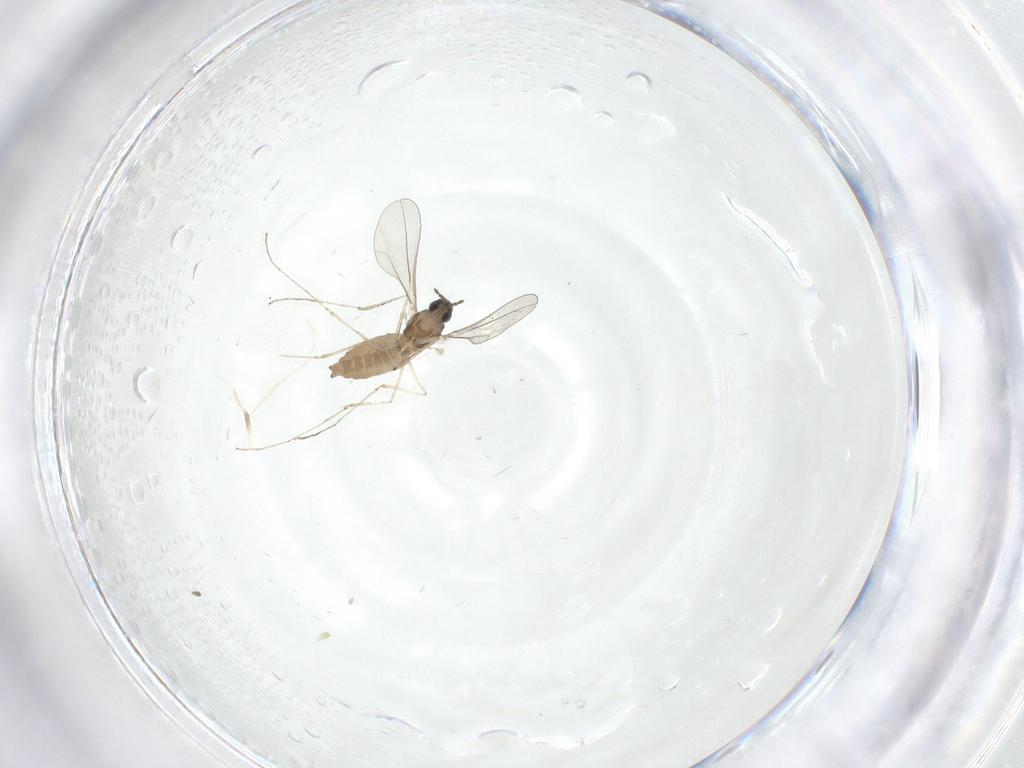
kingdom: Animalia
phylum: Arthropoda
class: Insecta
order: Diptera
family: Cecidomyiidae
